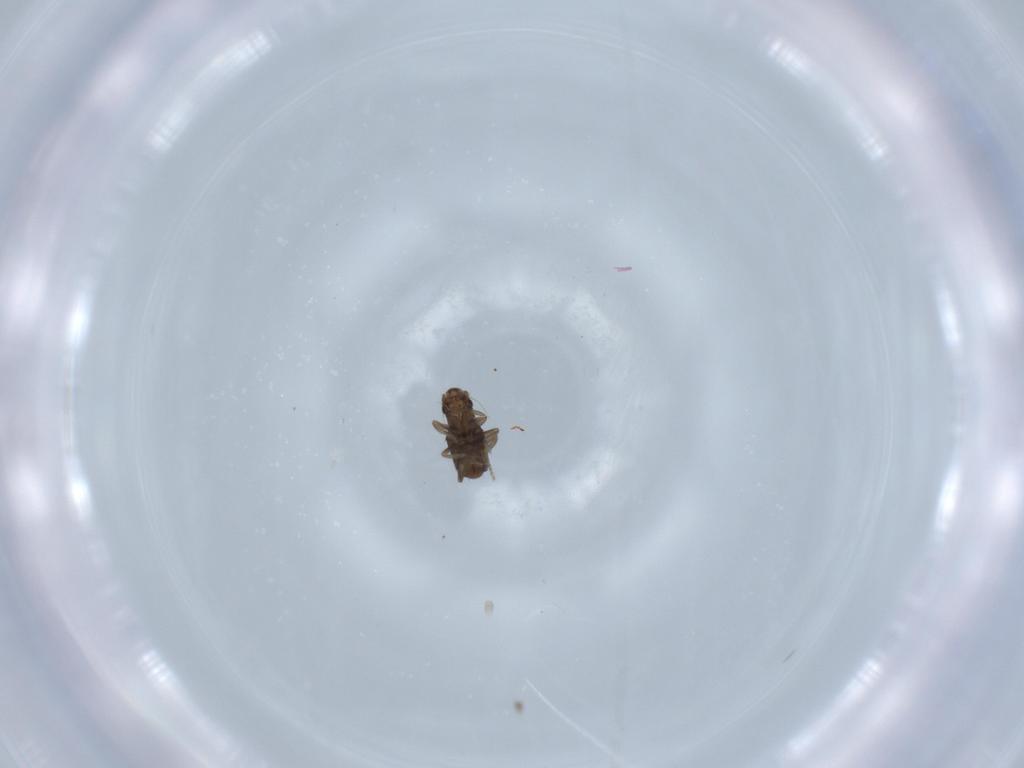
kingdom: Animalia
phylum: Arthropoda
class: Insecta
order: Diptera
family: Phoridae
